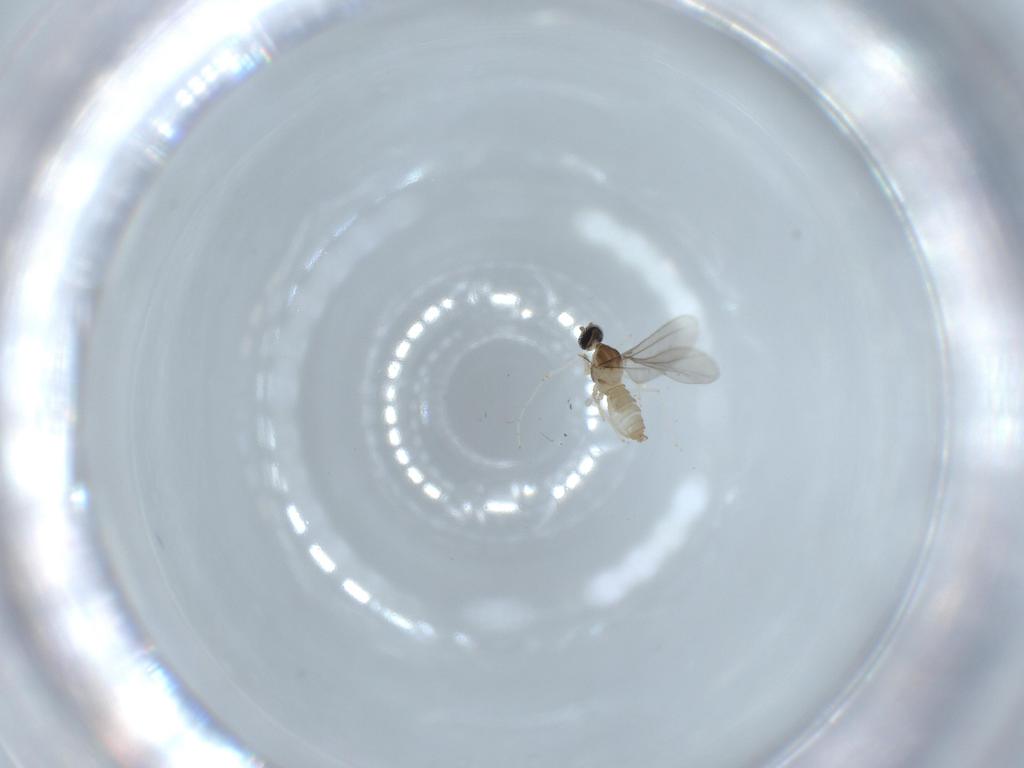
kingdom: Animalia
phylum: Arthropoda
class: Insecta
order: Diptera
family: Cecidomyiidae
